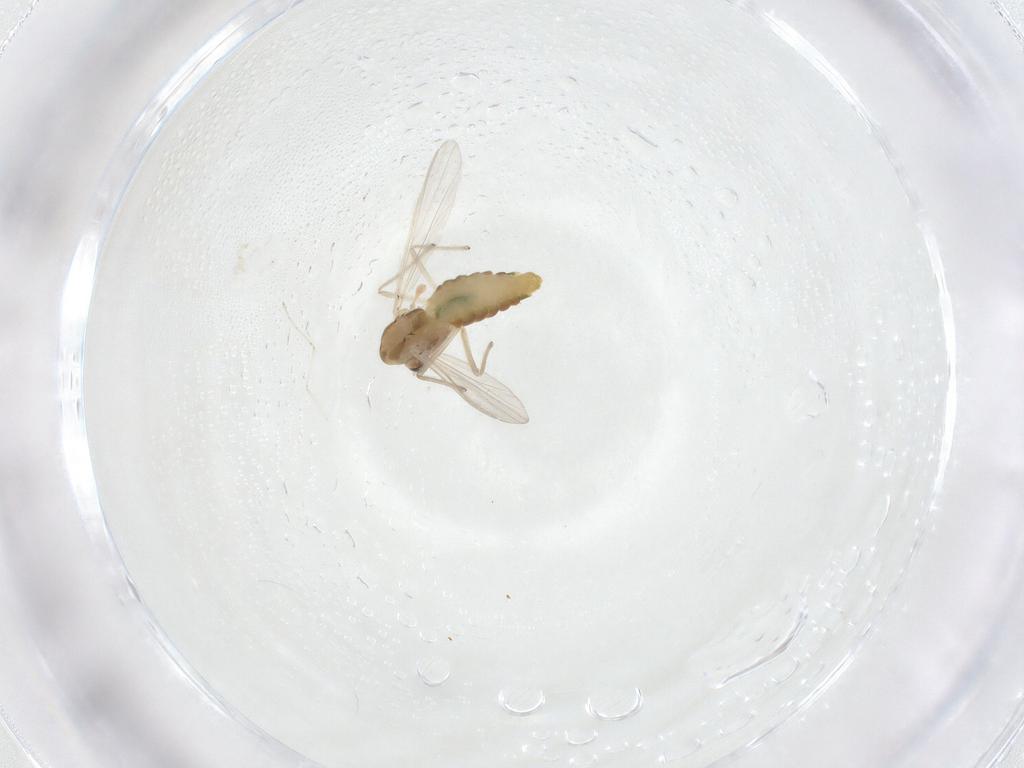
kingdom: Animalia
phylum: Arthropoda
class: Insecta
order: Diptera
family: Chironomidae
